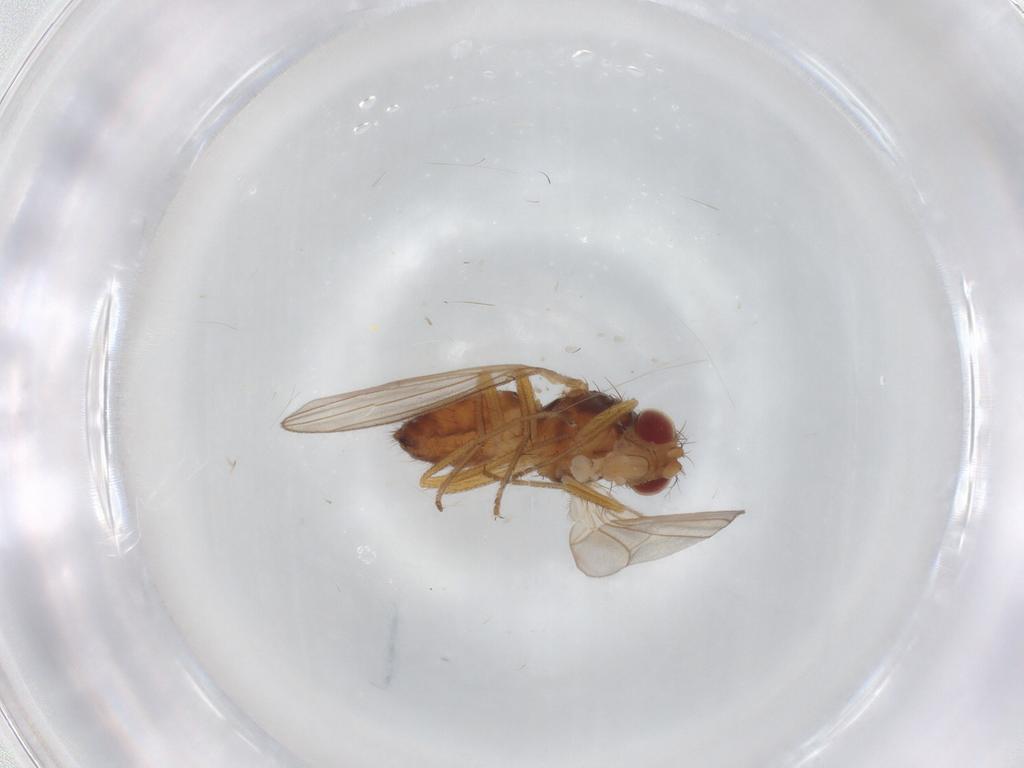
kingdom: Animalia
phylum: Arthropoda
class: Insecta
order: Diptera
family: Drosophilidae
